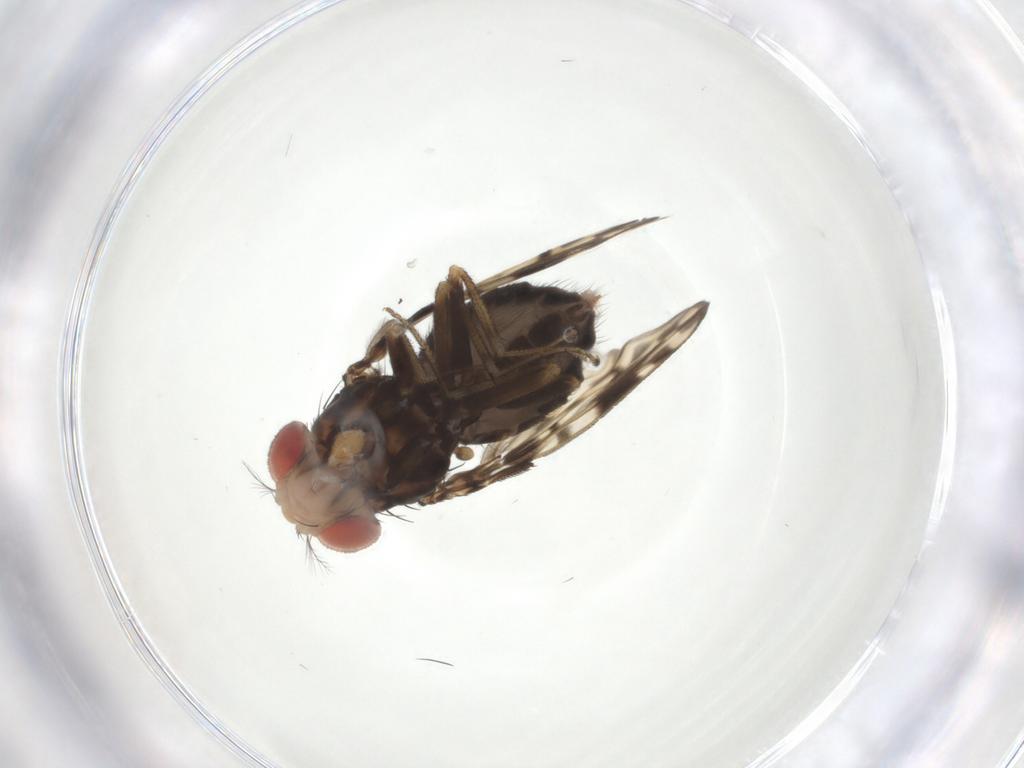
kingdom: Animalia
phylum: Arthropoda
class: Insecta
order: Diptera
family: Drosophilidae
